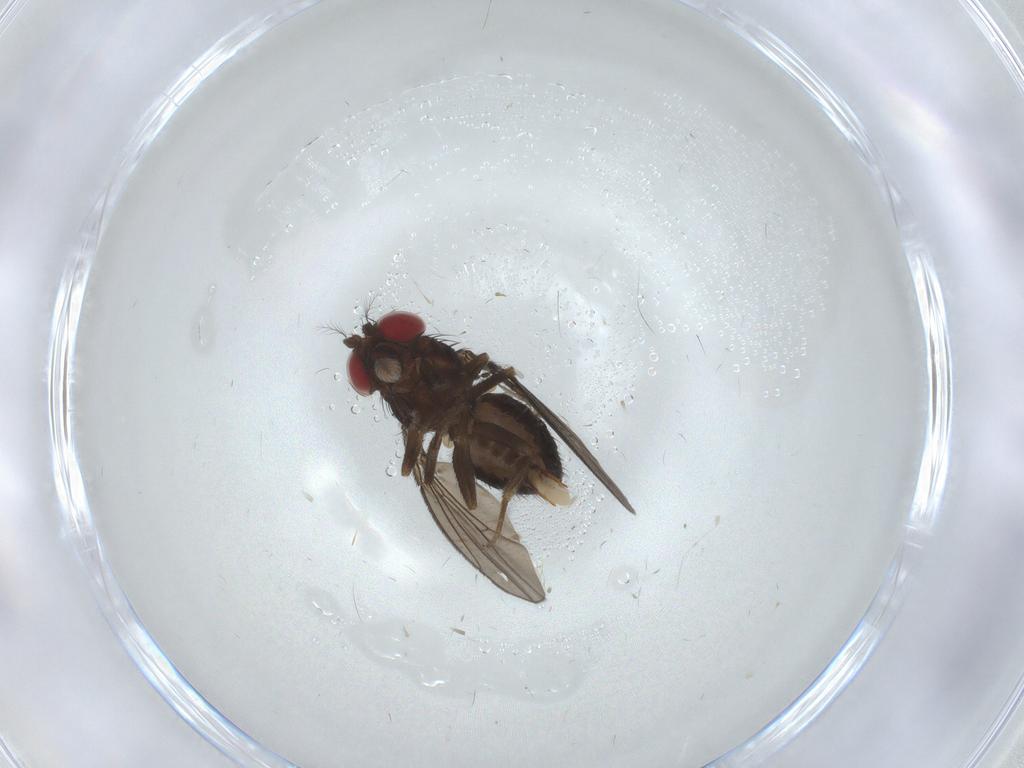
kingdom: Animalia
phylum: Arthropoda
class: Insecta
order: Diptera
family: Drosophilidae
